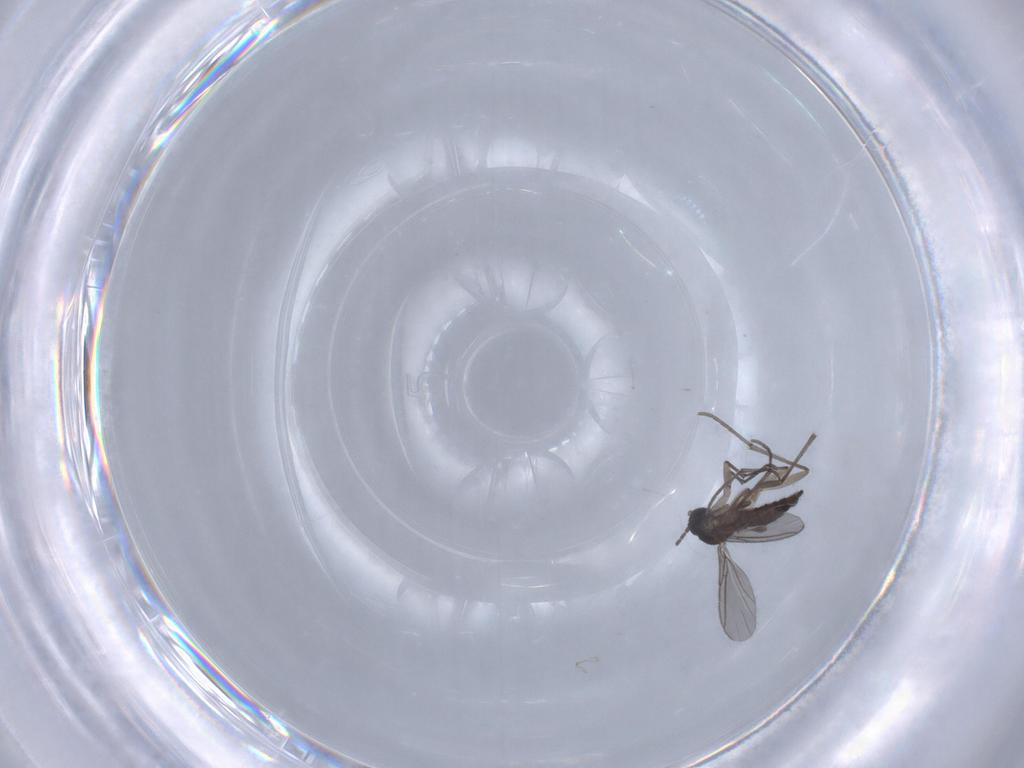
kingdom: Animalia
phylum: Arthropoda
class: Insecta
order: Diptera
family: Sciaridae
